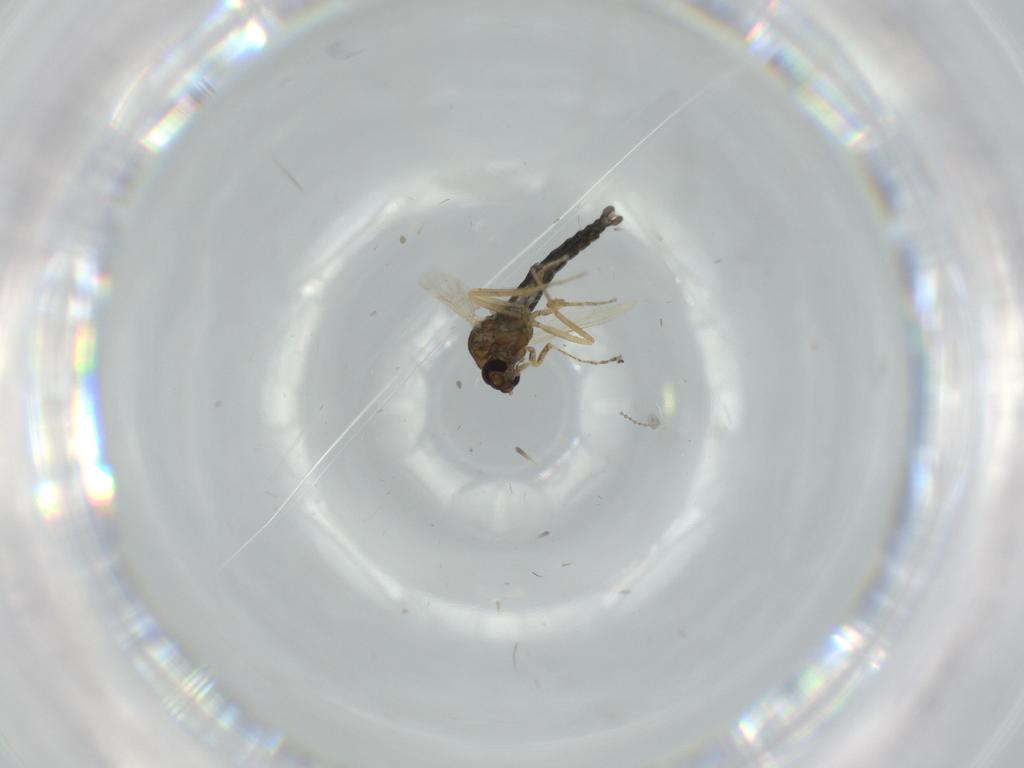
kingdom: Animalia
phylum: Arthropoda
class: Insecta
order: Diptera
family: Ceratopogonidae
